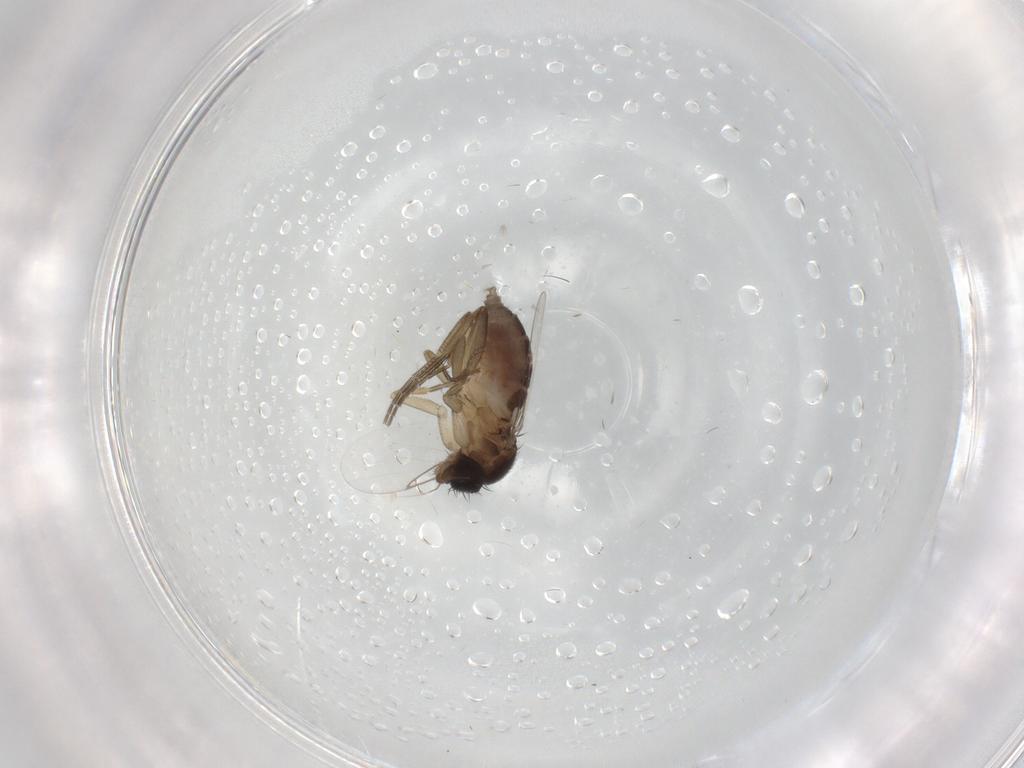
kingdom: Animalia
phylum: Arthropoda
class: Insecta
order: Diptera
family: Phoridae
